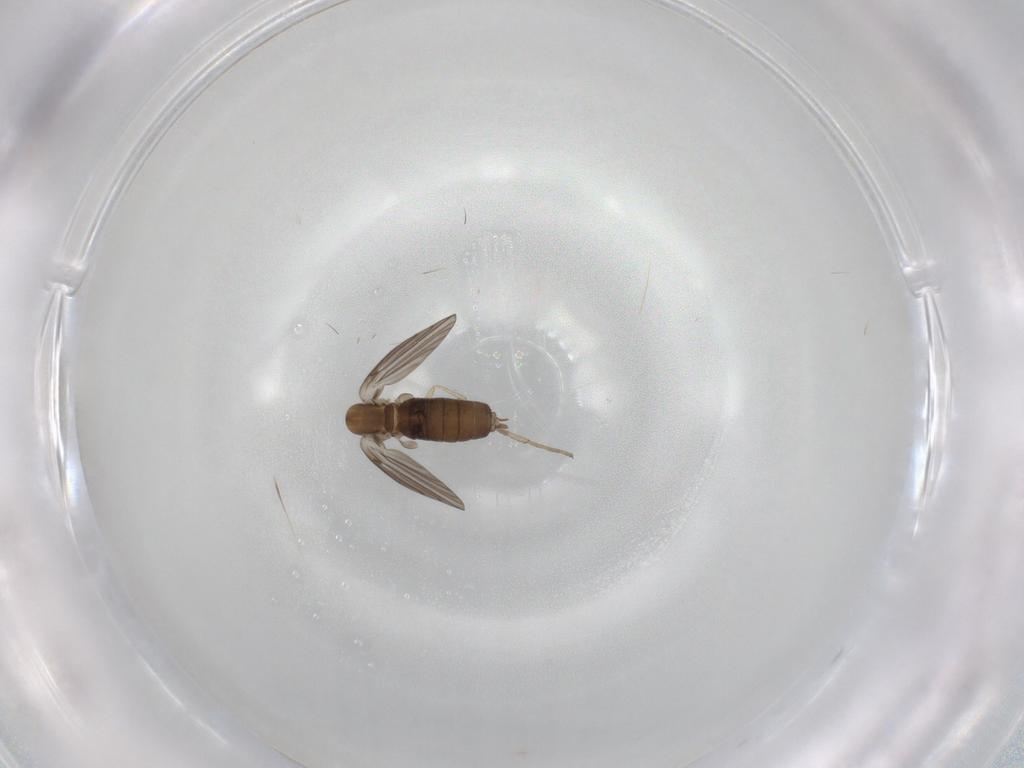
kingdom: Animalia
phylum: Arthropoda
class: Insecta
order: Diptera
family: Psychodidae
